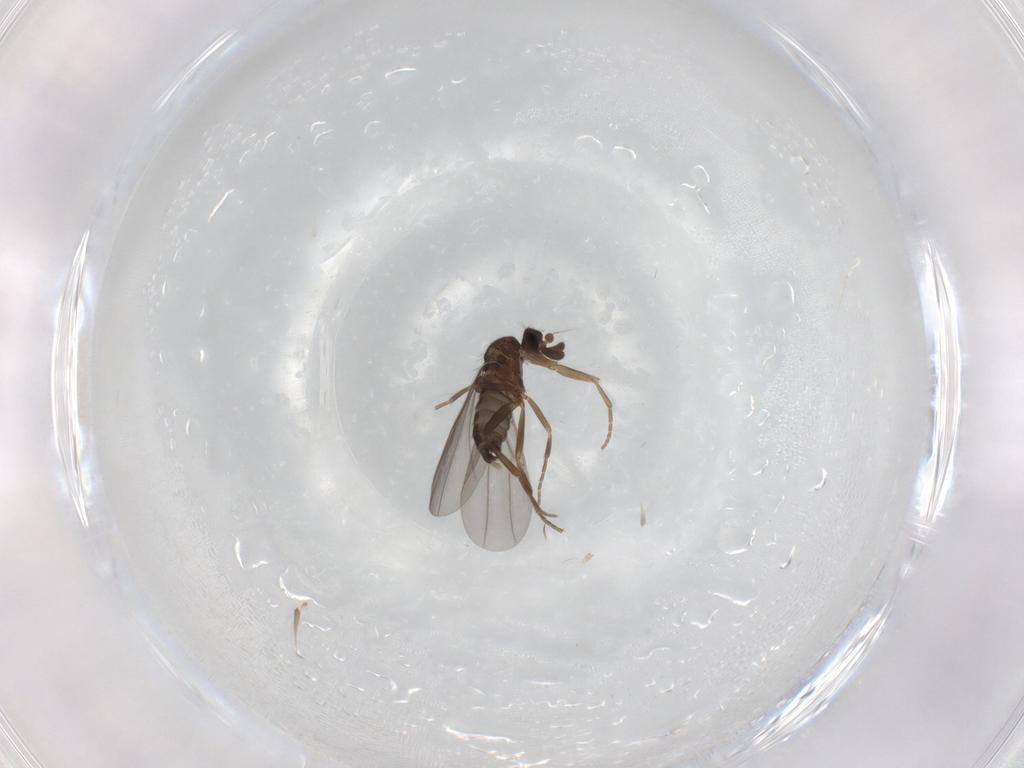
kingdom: Animalia
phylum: Arthropoda
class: Insecta
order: Diptera
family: Phoridae
